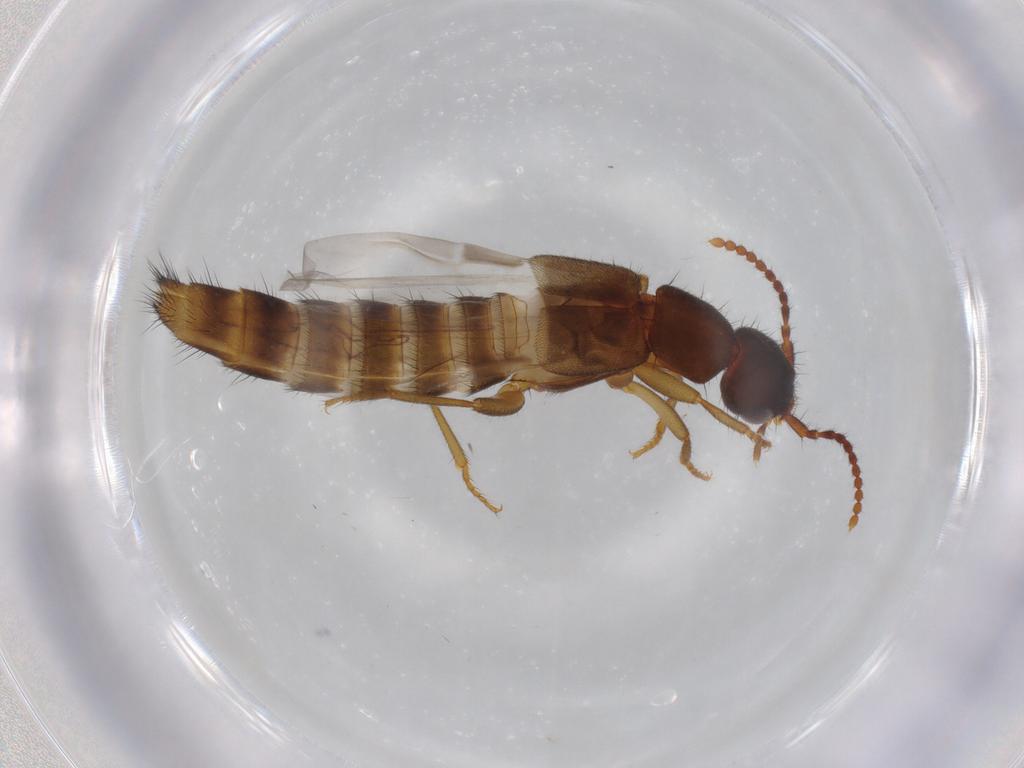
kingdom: Animalia
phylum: Arthropoda
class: Insecta
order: Coleoptera
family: Staphylinidae
